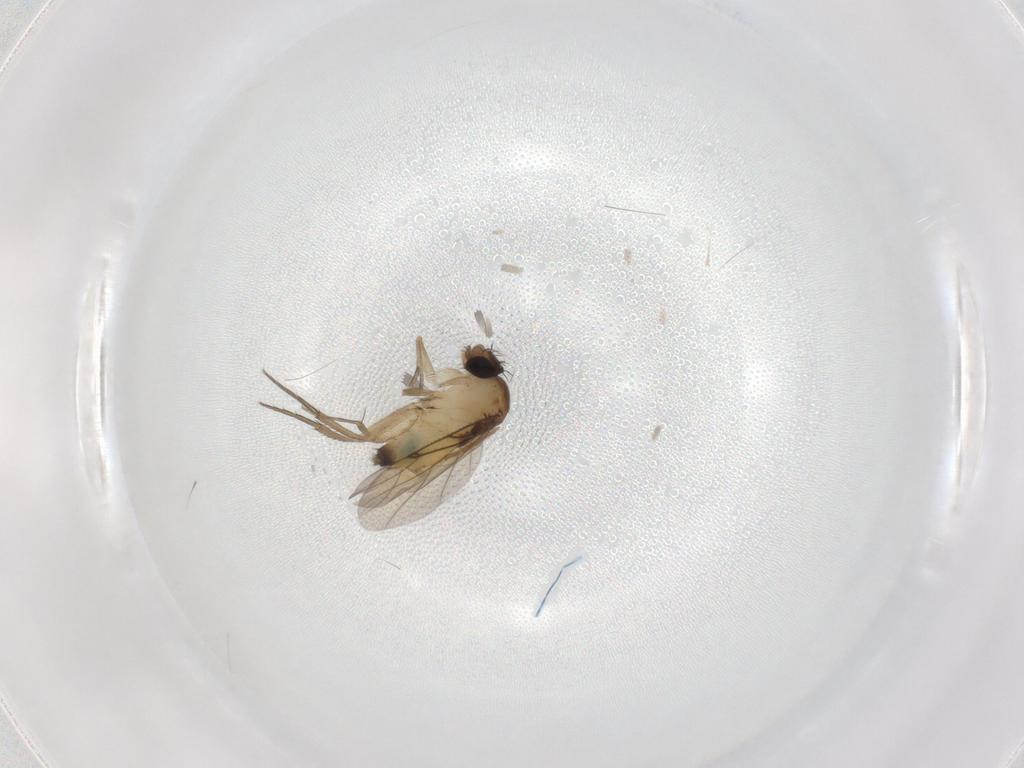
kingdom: Animalia
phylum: Arthropoda
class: Insecta
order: Diptera
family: Chironomidae
